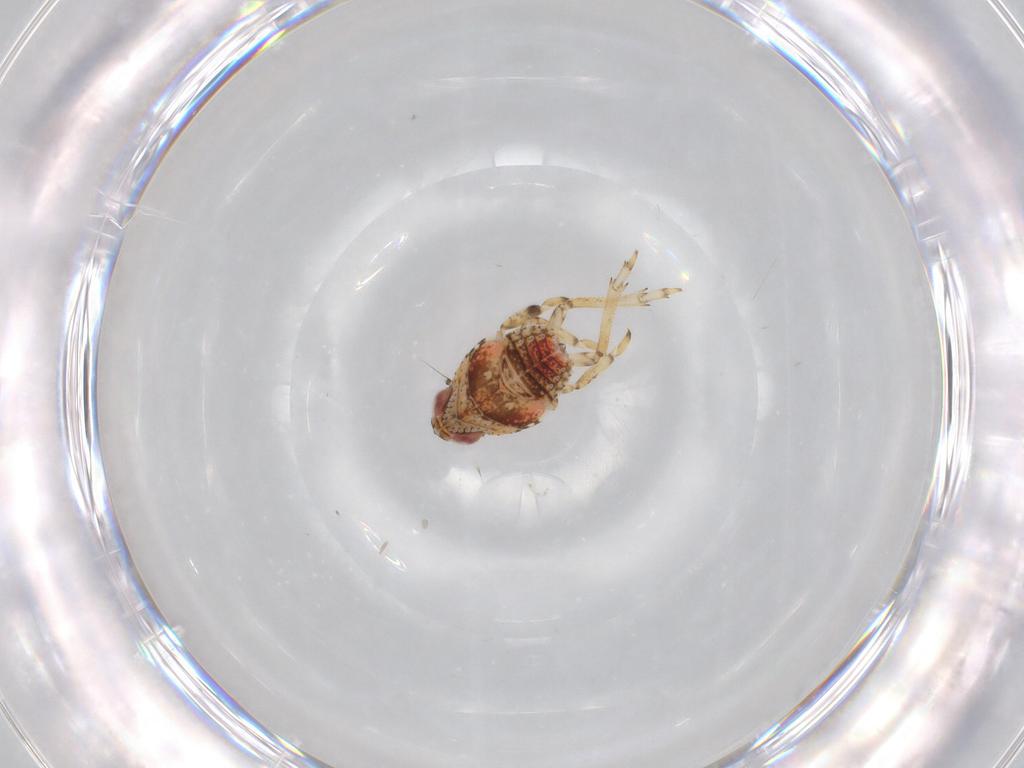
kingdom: Animalia
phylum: Arthropoda
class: Insecta
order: Hemiptera
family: Issidae
